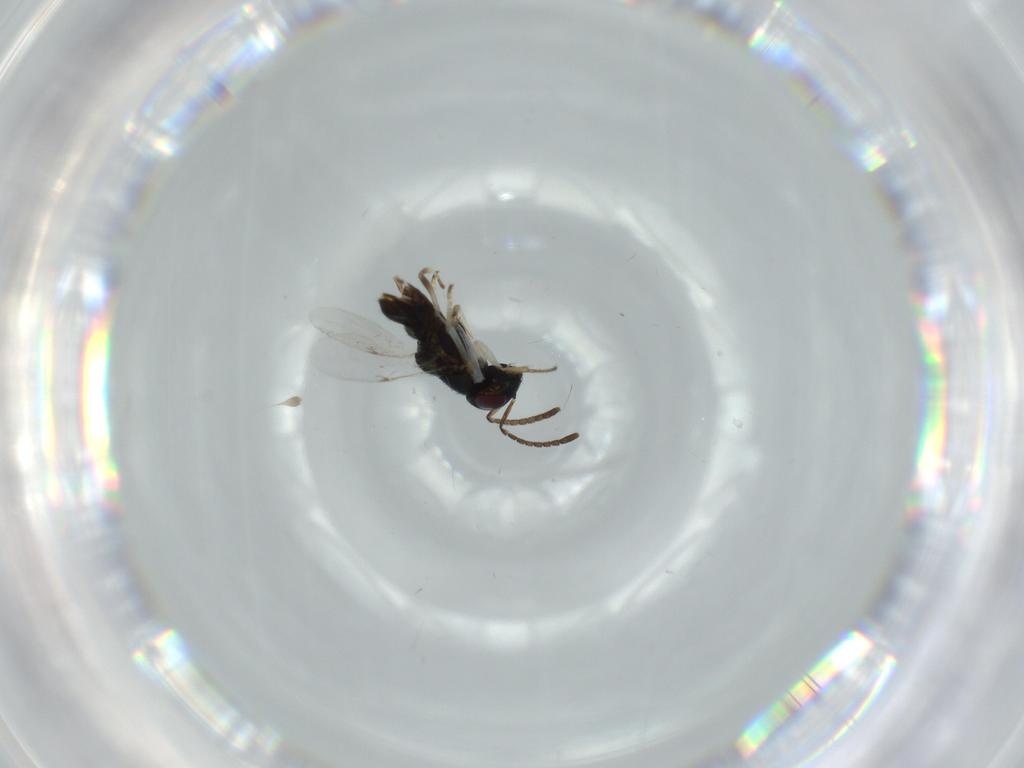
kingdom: Animalia
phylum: Arthropoda
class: Insecta
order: Hymenoptera
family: Encyrtidae
